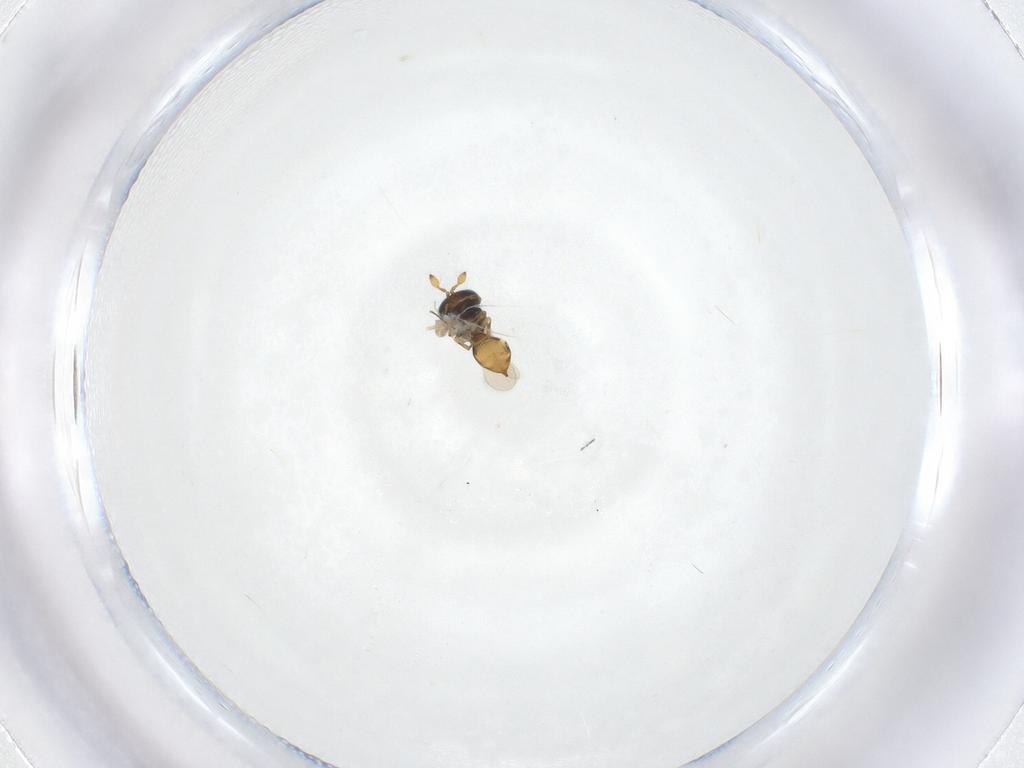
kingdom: Animalia
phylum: Arthropoda
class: Insecta
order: Hymenoptera
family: Scelionidae
